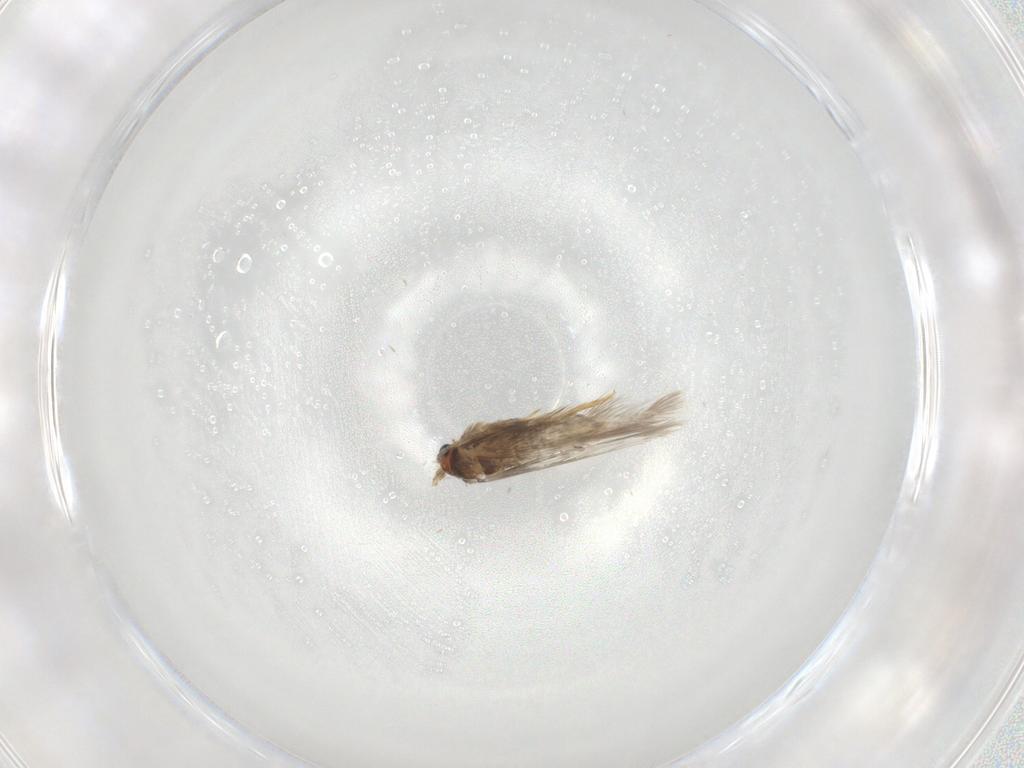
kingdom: Animalia
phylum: Arthropoda
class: Insecta
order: Lepidoptera
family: Nepticulidae
